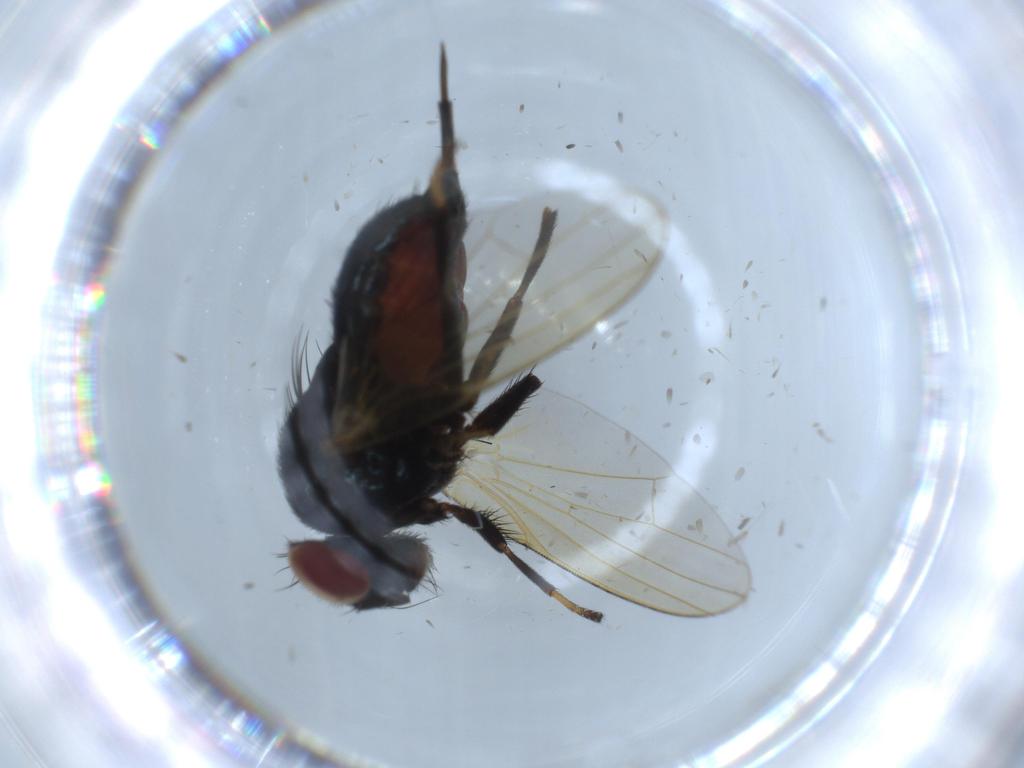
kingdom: Animalia
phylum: Arthropoda
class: Insecta
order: Diptera
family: Lonchaeidae
